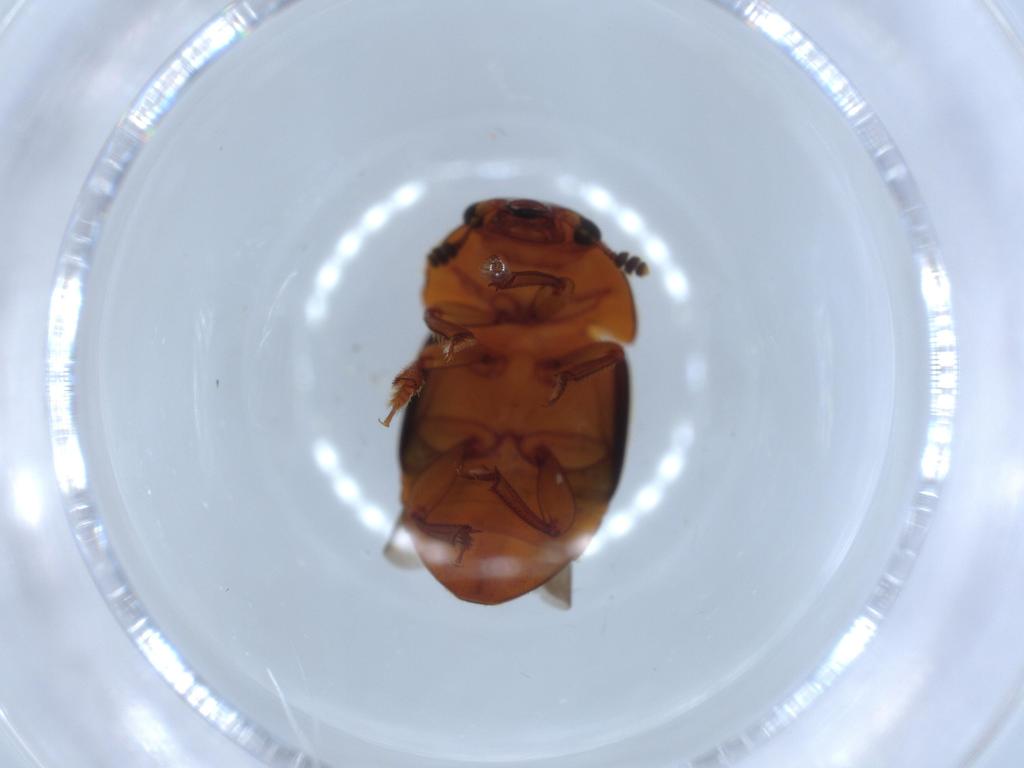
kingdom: Animalia
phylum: Arthropoda
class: Insecta
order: Coleoptera
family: Nitidulidae
